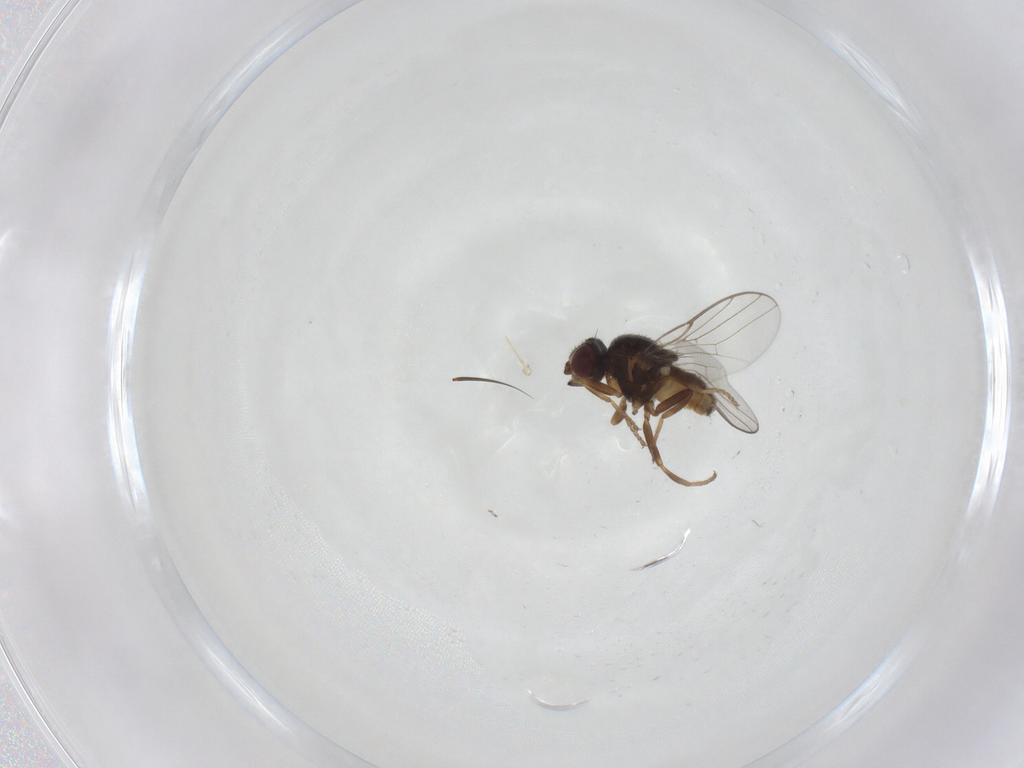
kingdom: Animalia
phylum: Arthropoda
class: Insecta
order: Diptera
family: Chloropidae
